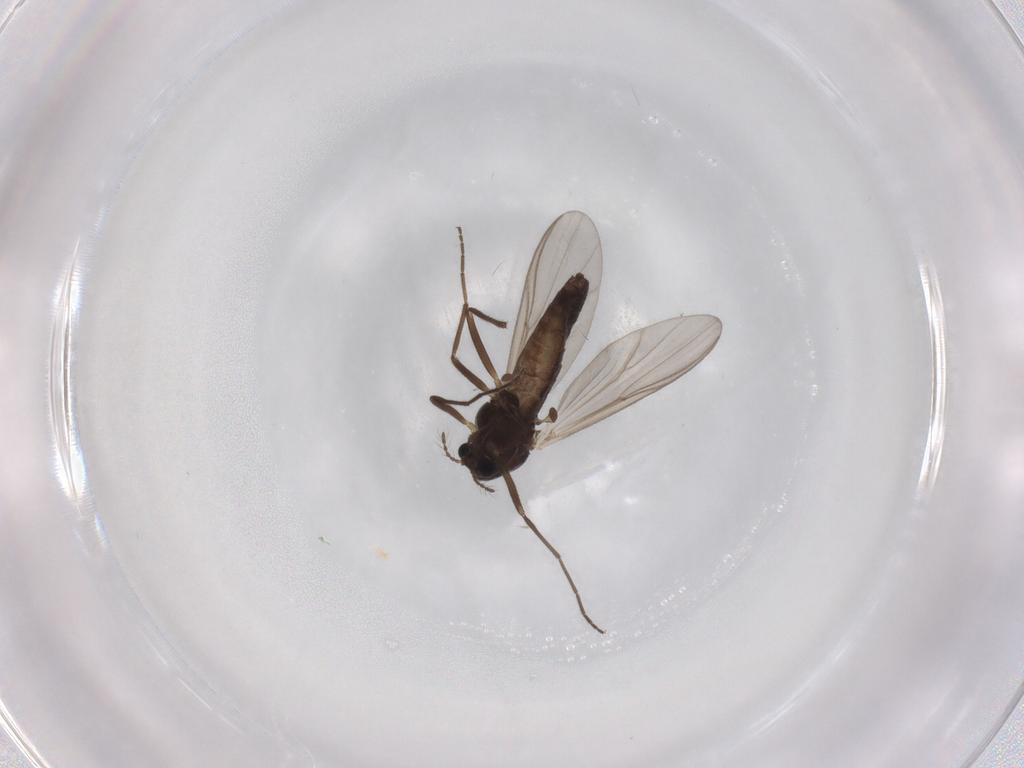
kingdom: Animalia
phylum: Arthropoda
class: Insecta
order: Diptera
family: Chironomidae
